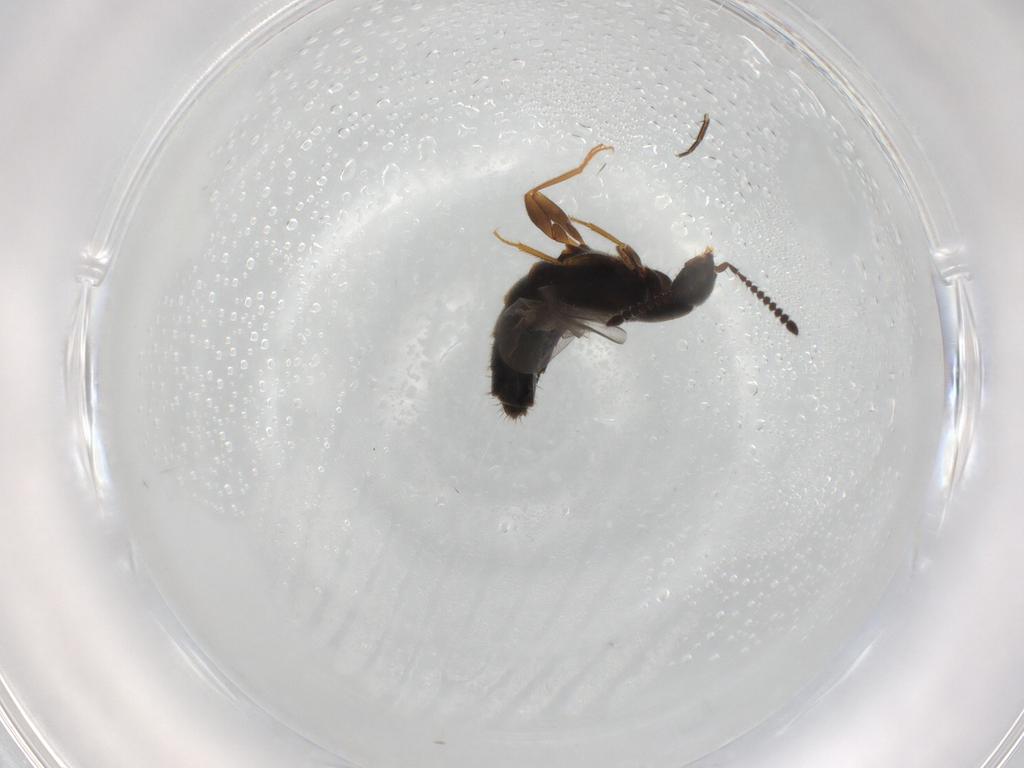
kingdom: Animalia
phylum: Arthropoda
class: Insecta
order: Coleoptera
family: Staphylinidae
